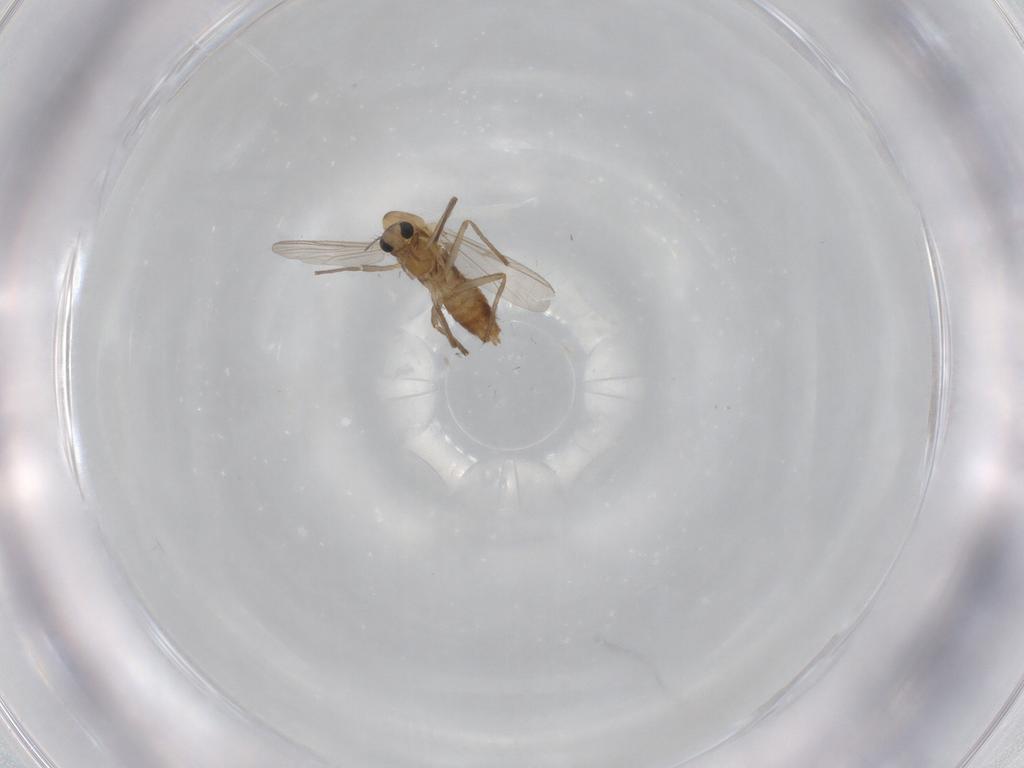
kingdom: Animalia
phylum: Arthropoda
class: Insecta
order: Diptera
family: Chironomidae
